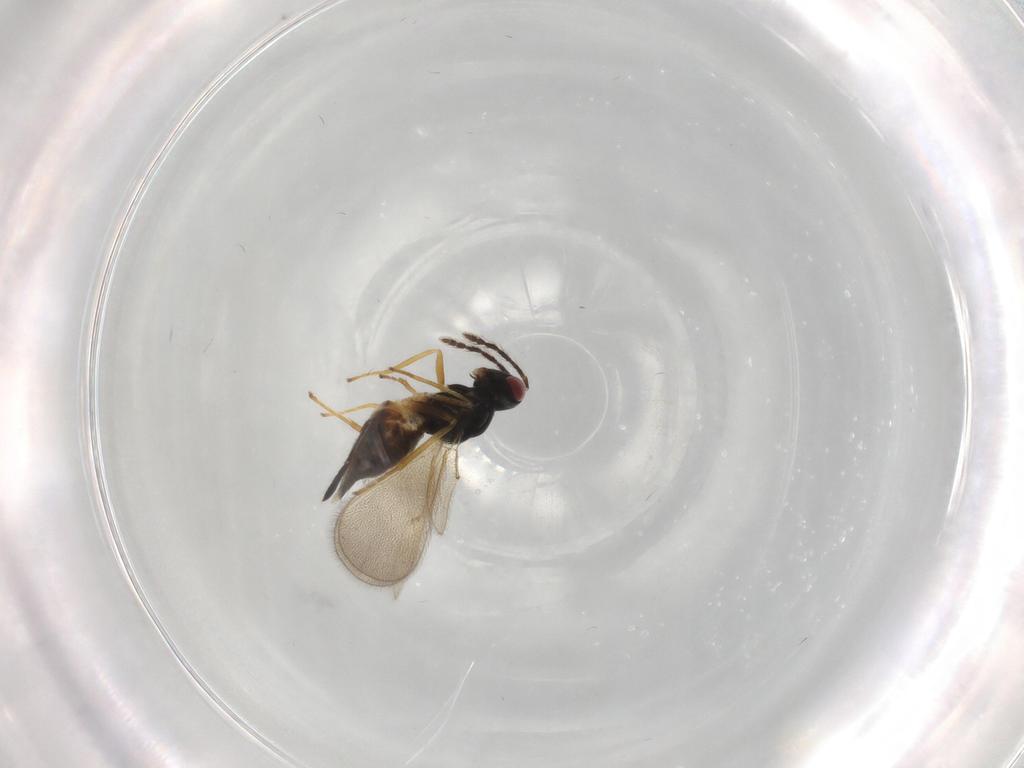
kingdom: Animalia
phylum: Arthropoda
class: Insecta
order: Hymenoptera
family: Eulophidae
